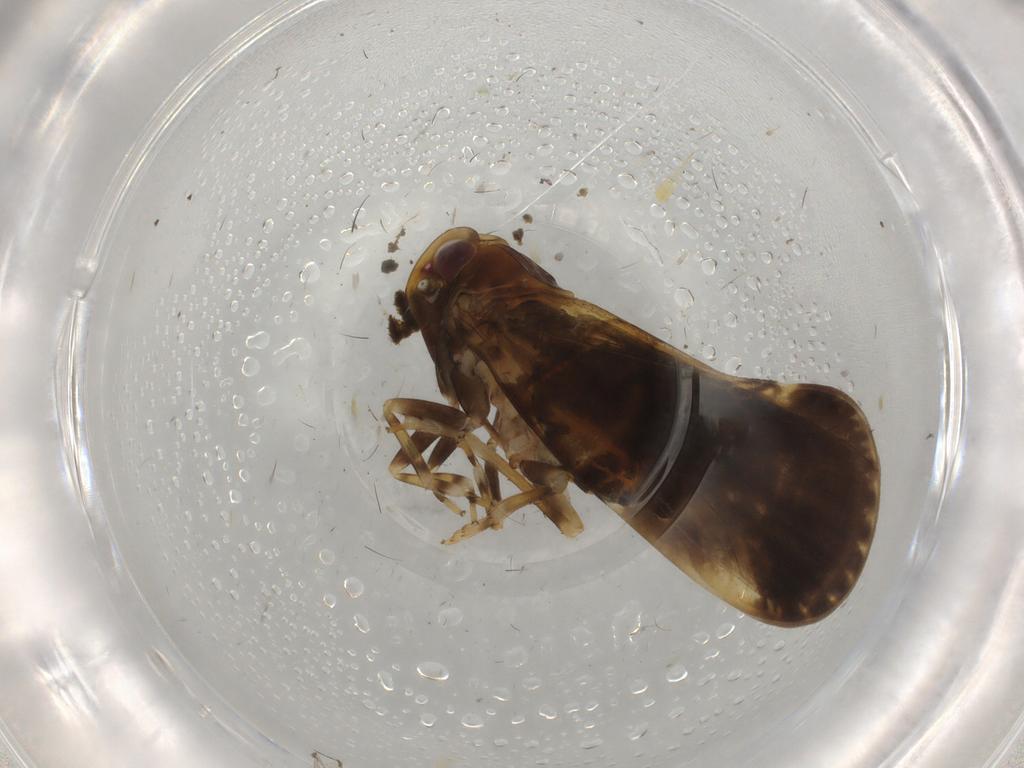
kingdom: Animalia
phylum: Arthropoda
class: Insecta
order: Hemiptera
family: Cixiidae
